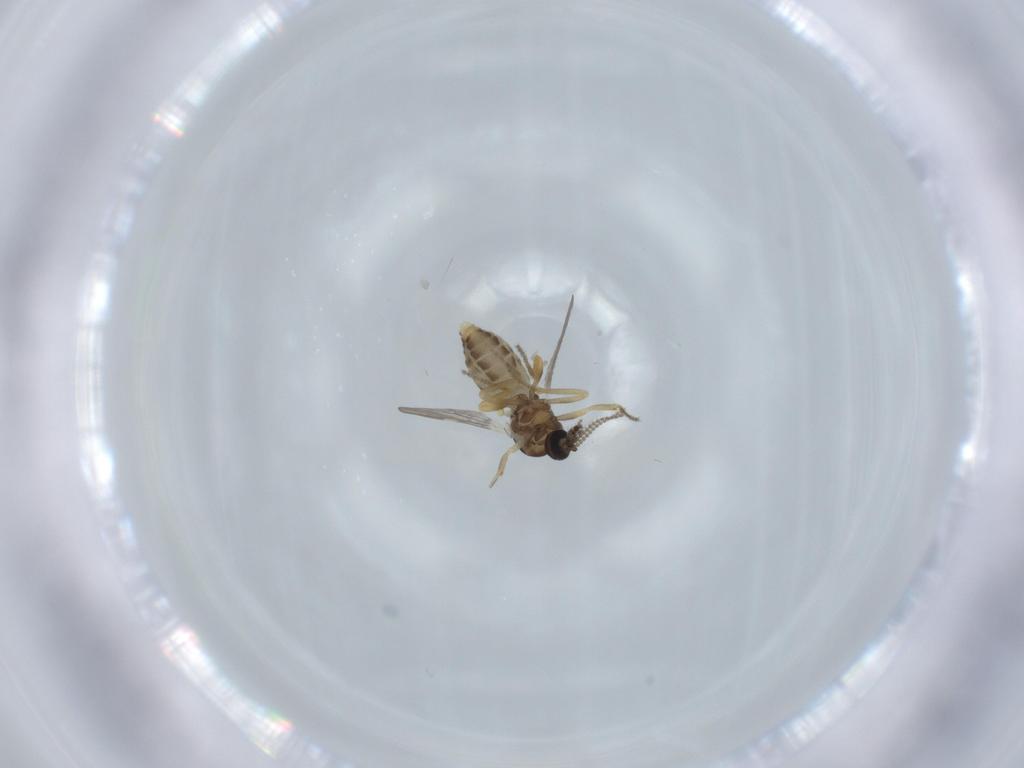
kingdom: Animalia
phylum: Arthropoda
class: Insecta
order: Diptera
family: Ceratopogonidae
